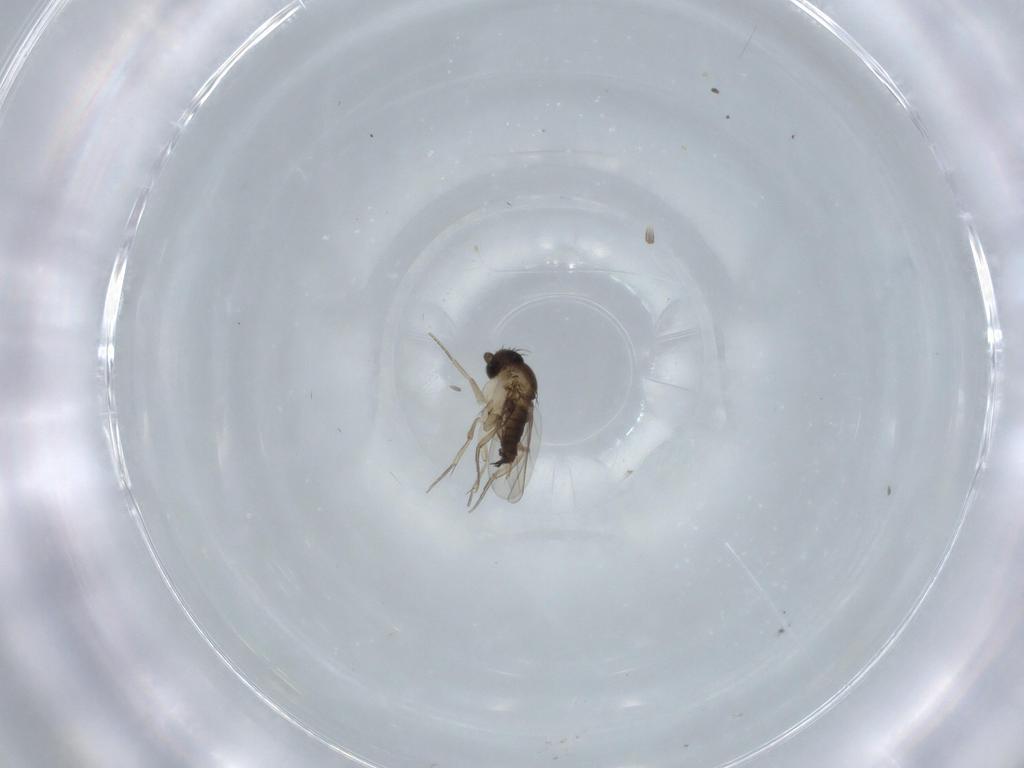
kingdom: Animalia
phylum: Arthropoda
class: Insecta
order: Diptera
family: Phoridae
